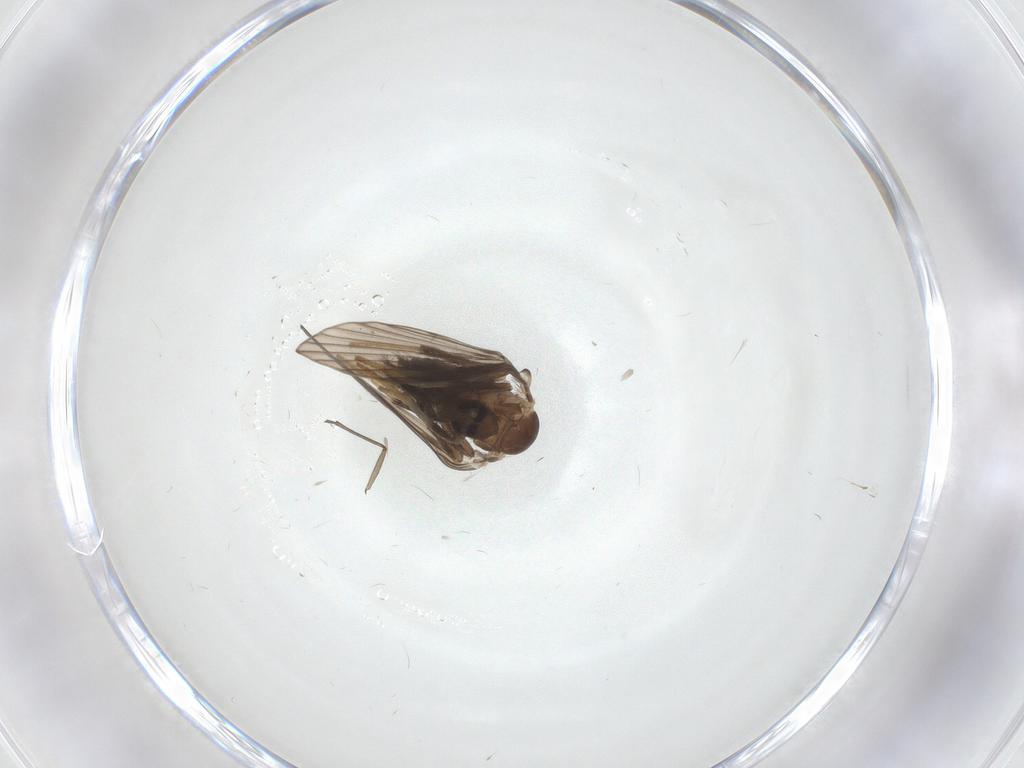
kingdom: Animalia
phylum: Arthropoda
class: Insecta
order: Diptera
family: Psychodidae
